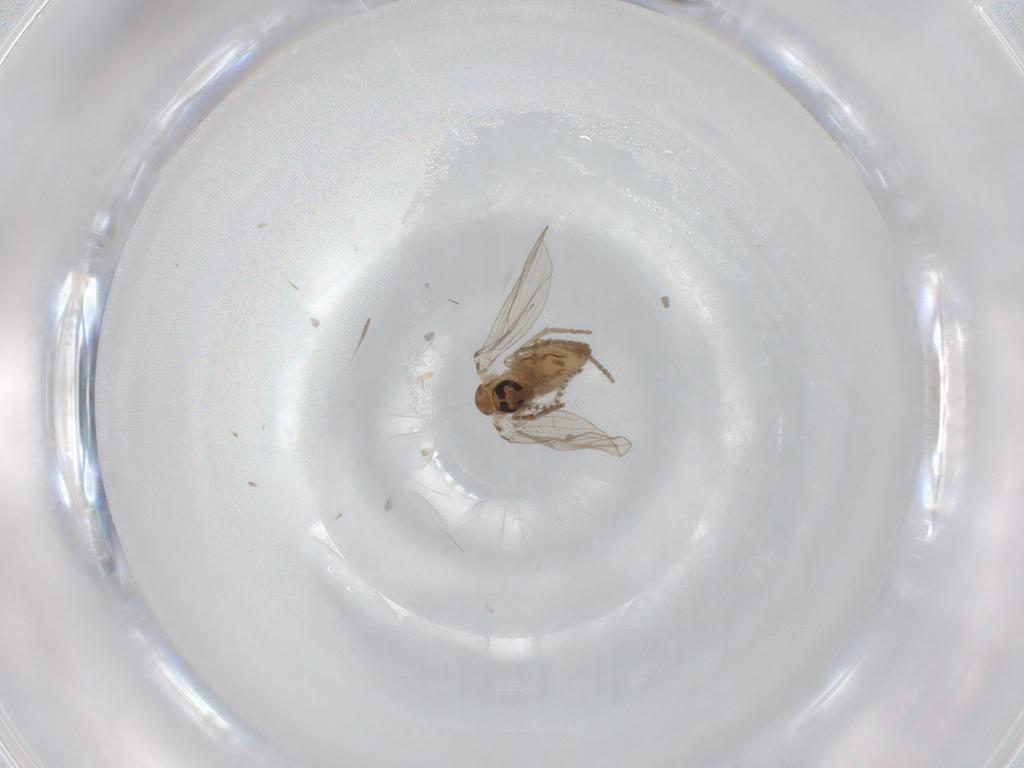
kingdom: Animalia
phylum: Arthropoda
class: Insecta
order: Diptera
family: Psychodidae
